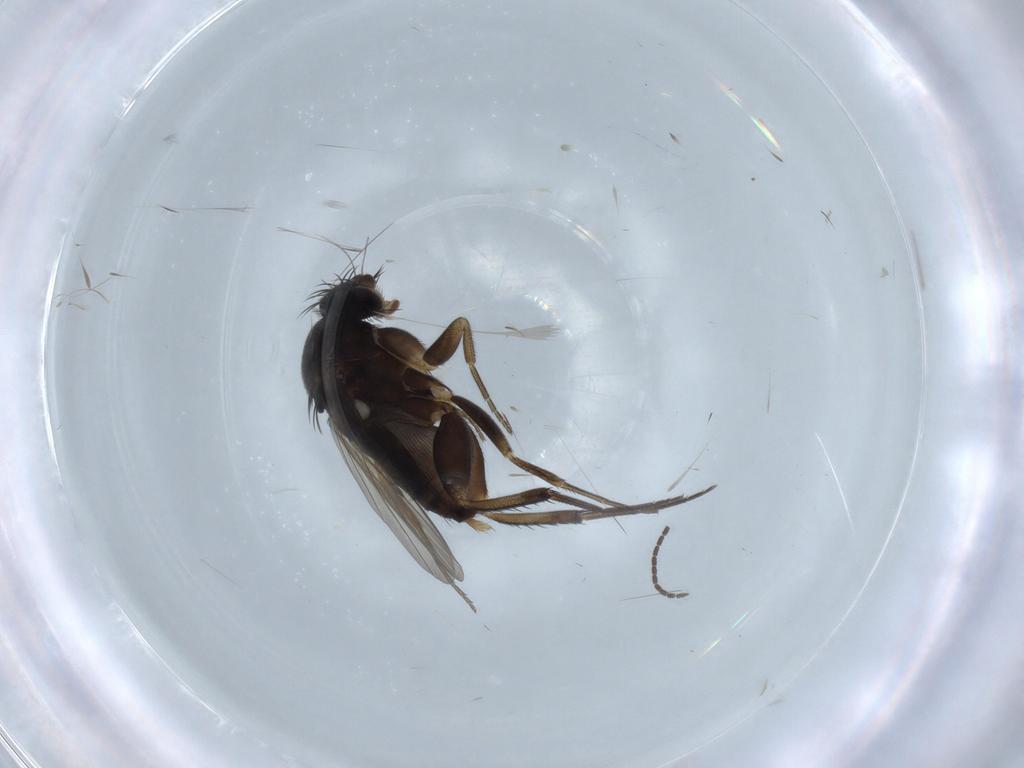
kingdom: Animalia
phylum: Arthropoda
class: Insecta
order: Diptera
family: Sciaridae
